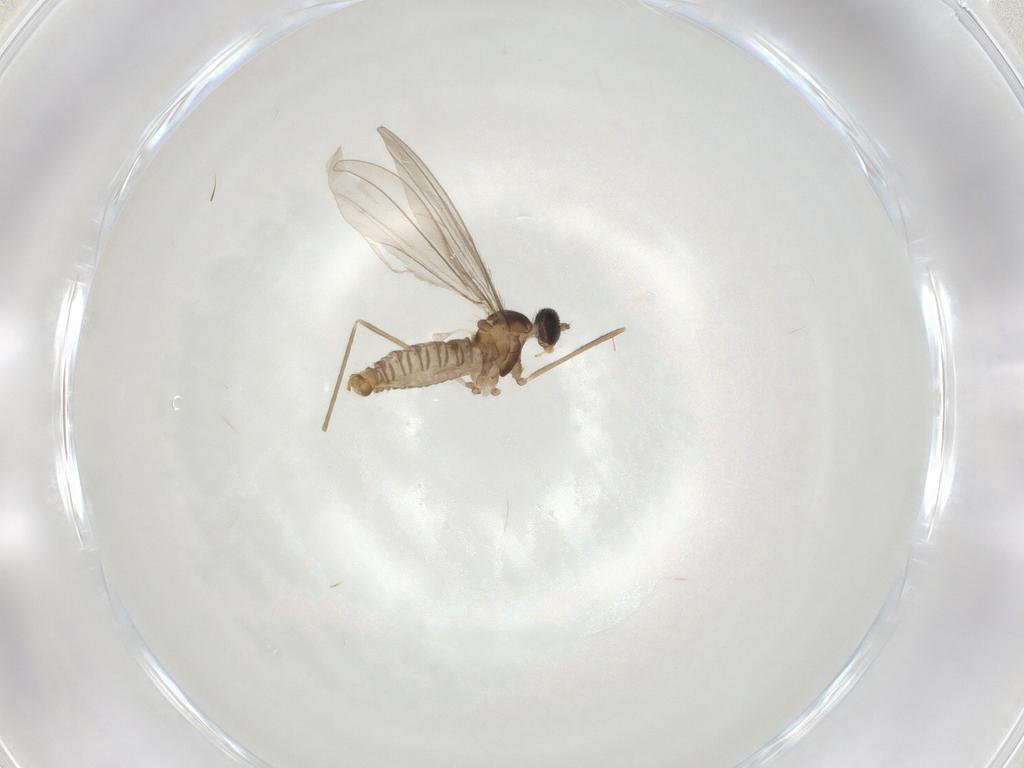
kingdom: Animalia
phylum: Arthropoda
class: Insecta
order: Diptera
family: Cecidomyiidae
